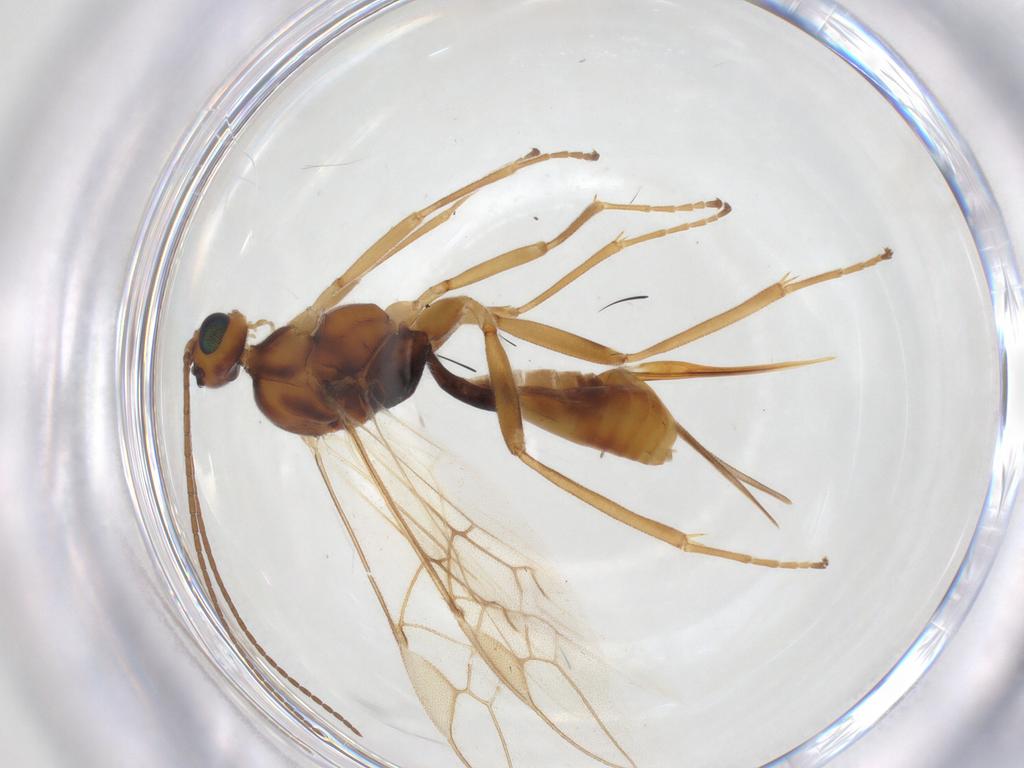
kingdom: Animalia
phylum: Arthropoda
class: Insecta
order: Hymenoptera
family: Braconidae
